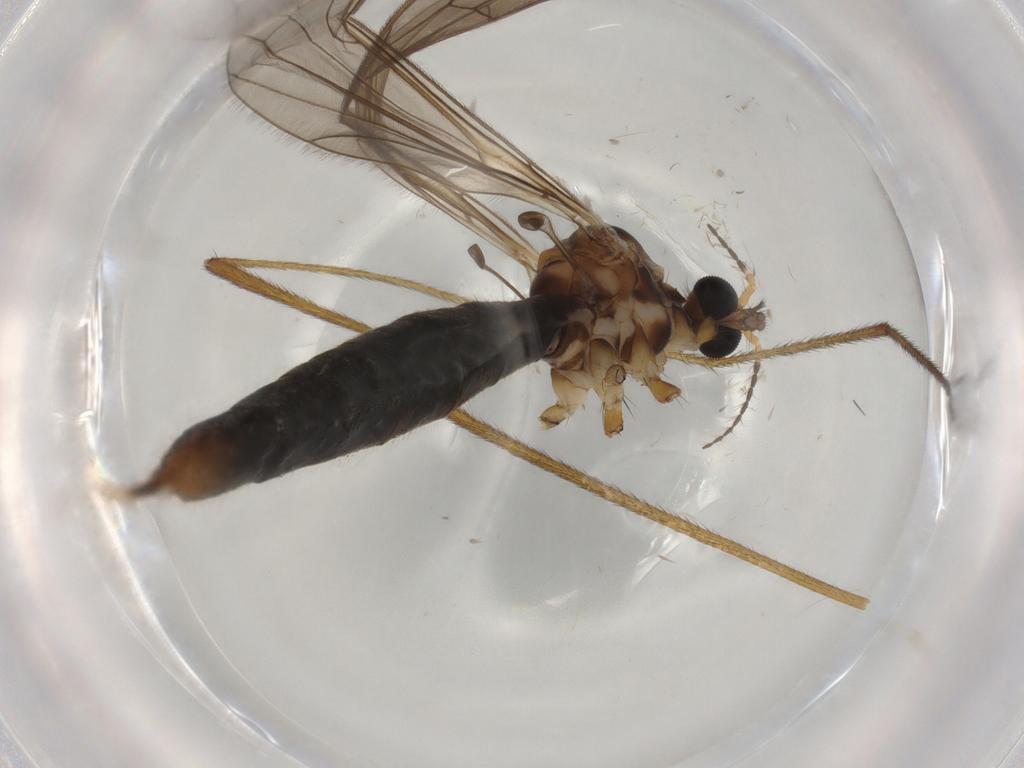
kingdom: Animalia
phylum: Arthropoda
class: Insecta
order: Diptera
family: Limoniidae
